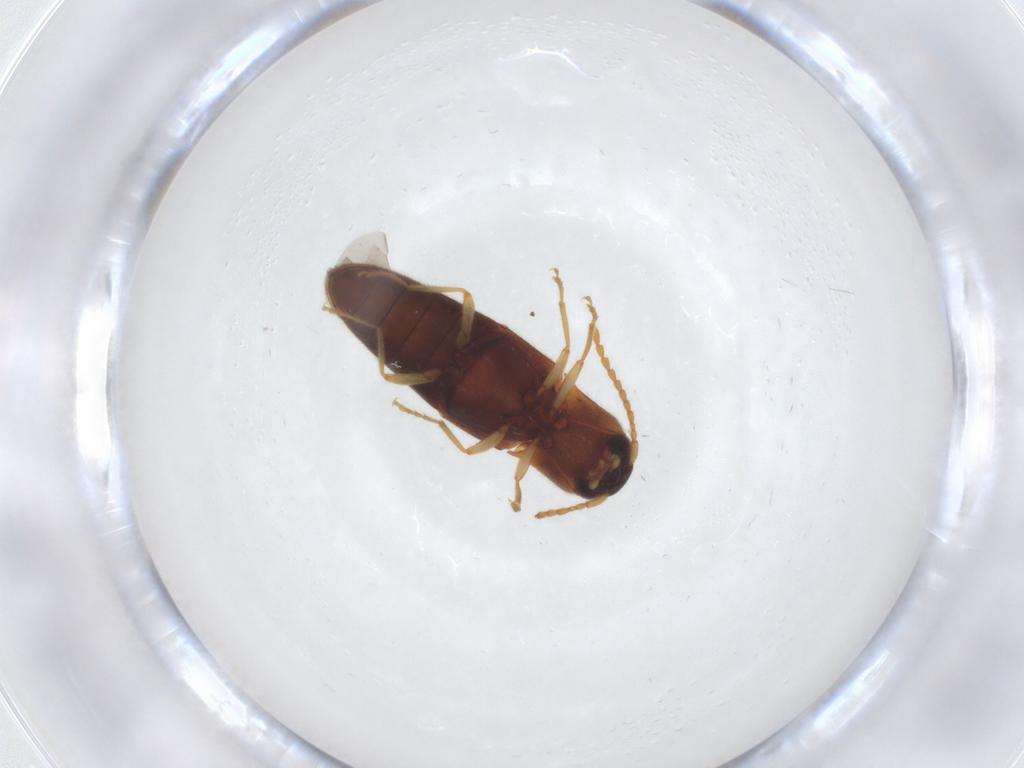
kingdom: Animalia
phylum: Arthropoda
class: Insecta
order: Coleoptera
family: Elateridae
